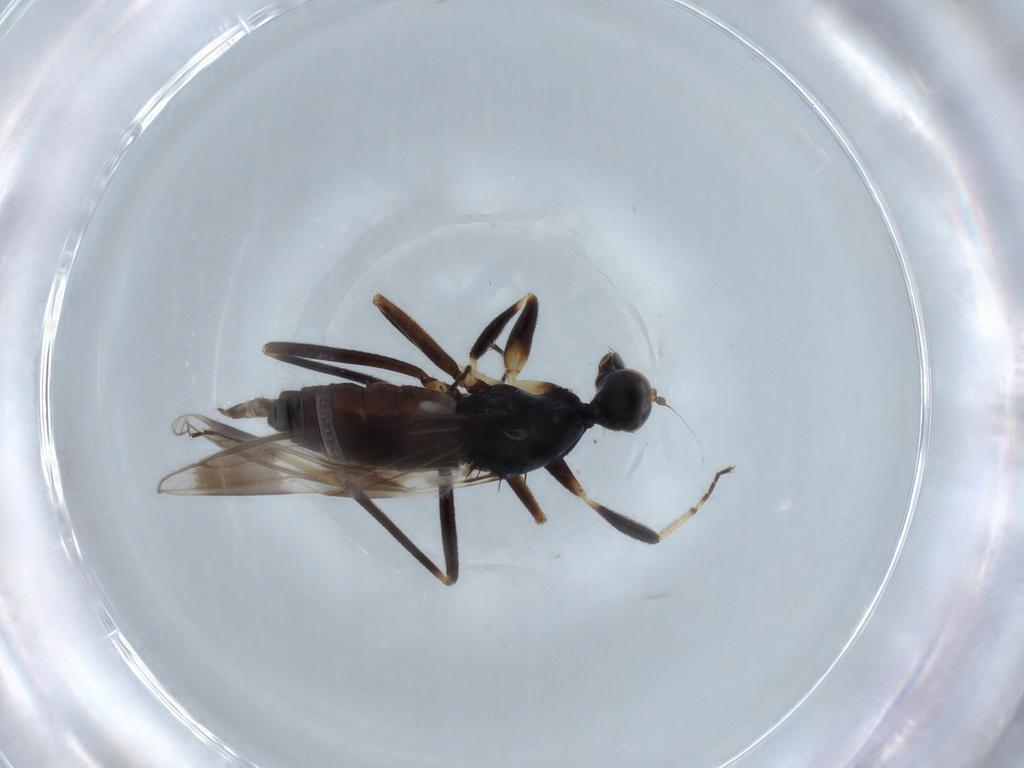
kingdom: Animalia
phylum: Arthropoda
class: Insecta
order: Diptera
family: Hybotidae
